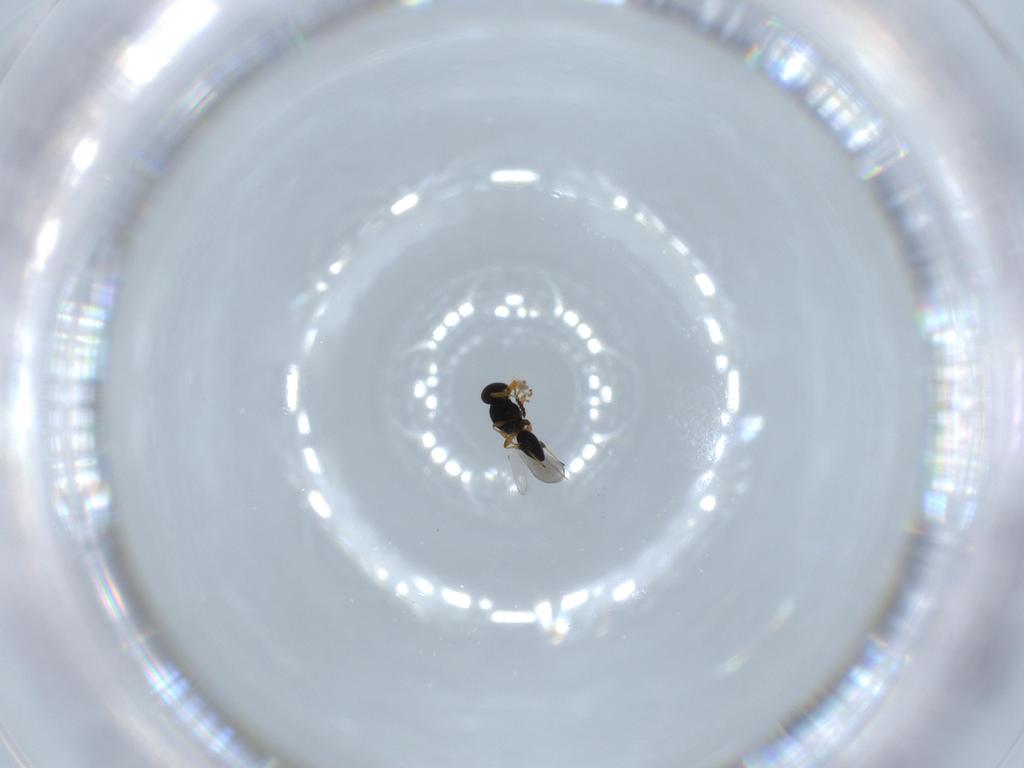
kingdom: Animalia
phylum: Arthropoda
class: Insecta
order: Hymenoptera
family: Platygastridae
